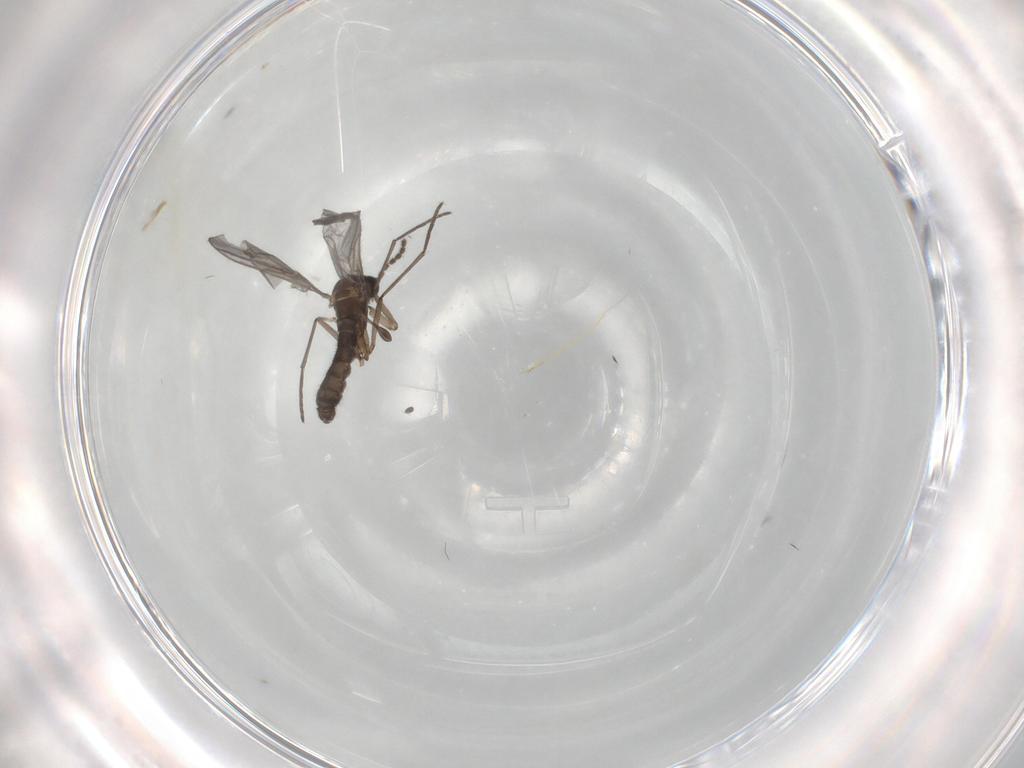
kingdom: Animalia
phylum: Arthropoda
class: Insecta
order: Diptera
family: Sciaridae
